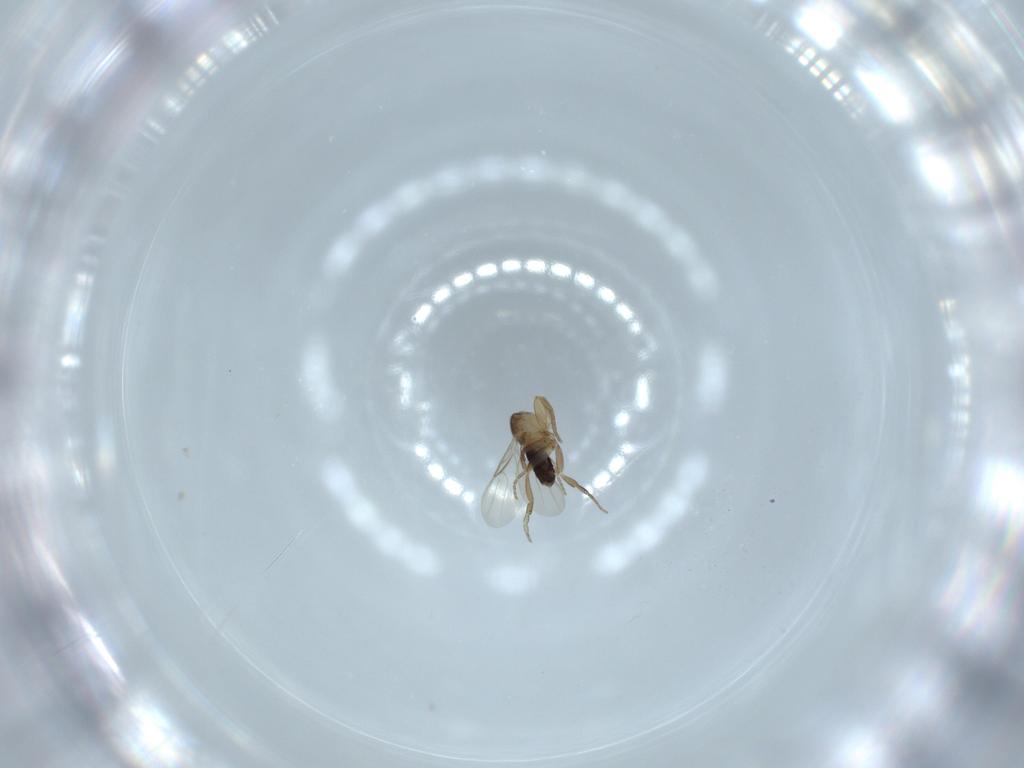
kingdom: Animalia
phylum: Arthropoda
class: Insecta
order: Diptera
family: Phoridae
